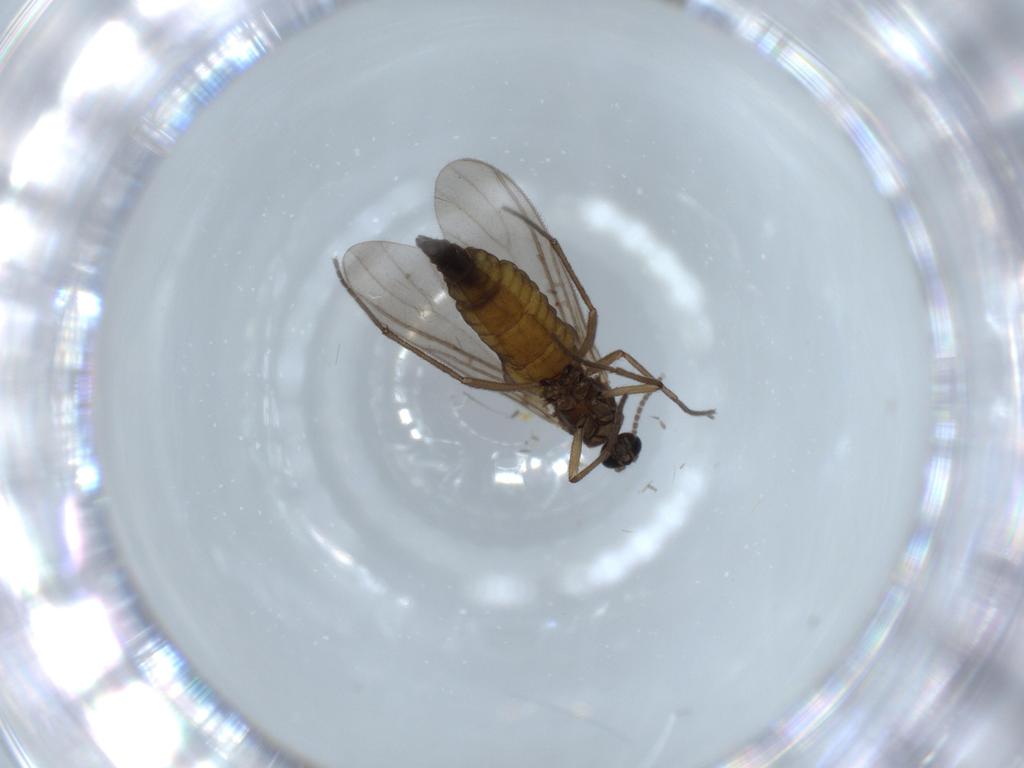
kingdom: Animalia
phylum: Arthropoda
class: Insecta
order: Diptera
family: Sciaridae
